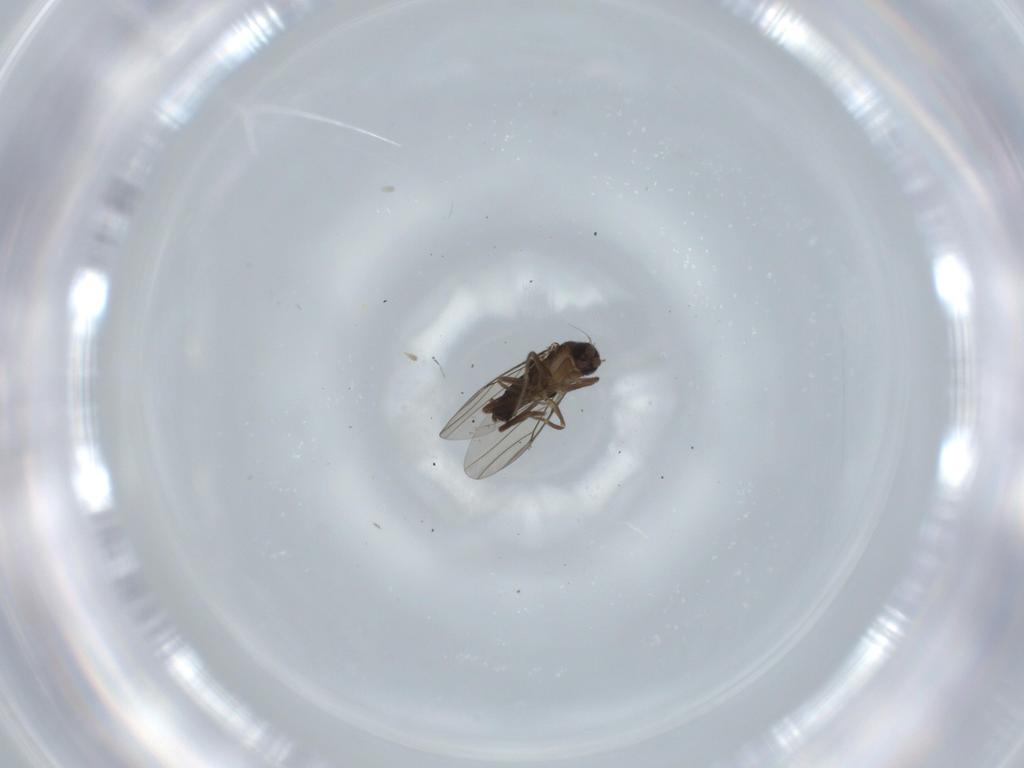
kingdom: Animalia
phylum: Arthropoda
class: Insecta
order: Diptera
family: Phoridae
